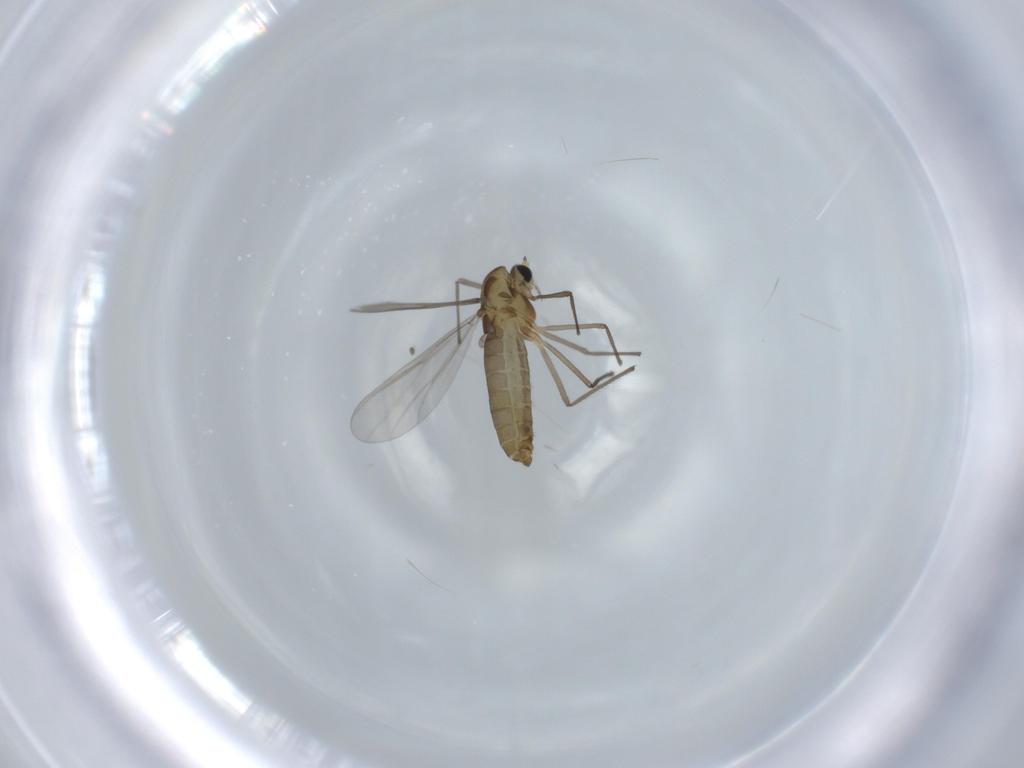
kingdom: Animalia
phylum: Arthropoda
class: Insecta
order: Diptera
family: Chironomidae
